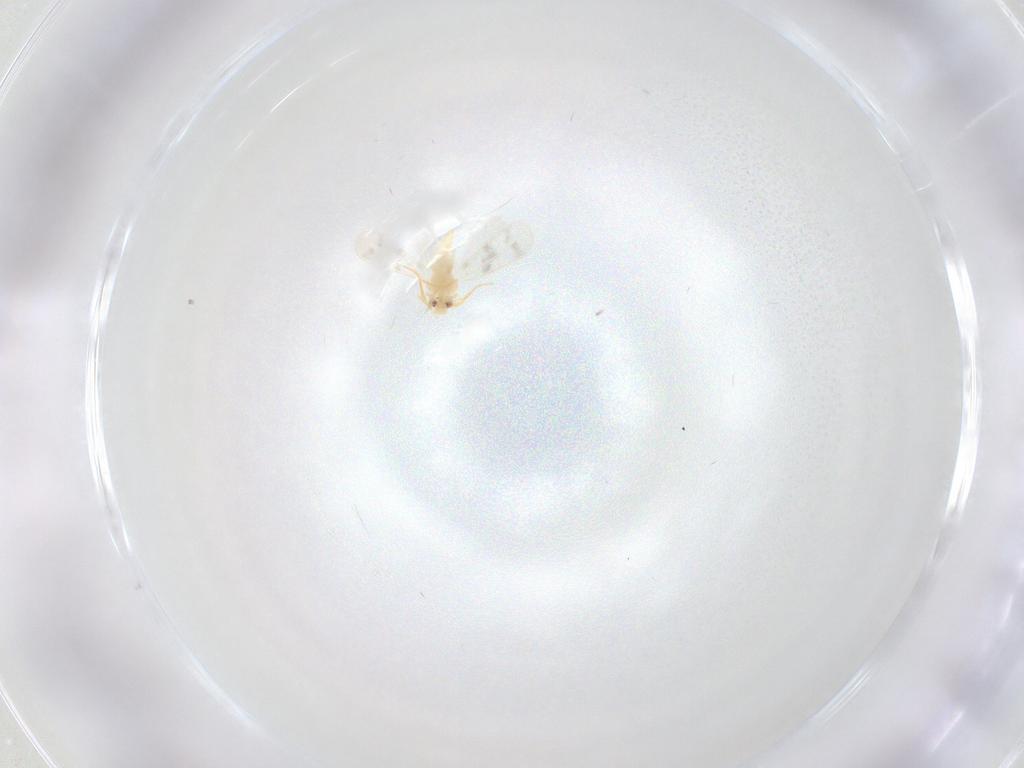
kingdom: Animalia
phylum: Arthropoda
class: Insecta
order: Hemiptera
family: Aleyrodidae
